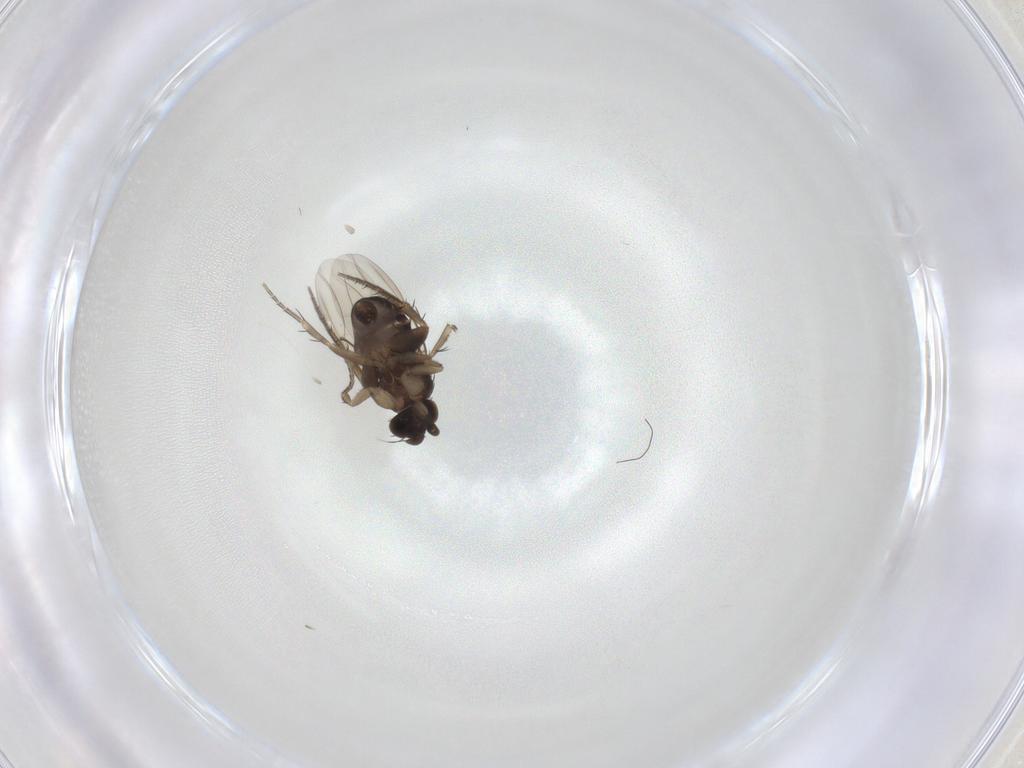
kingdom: Animalia
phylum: Arthropoda
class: Insecta
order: Diptera
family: Phoridae
